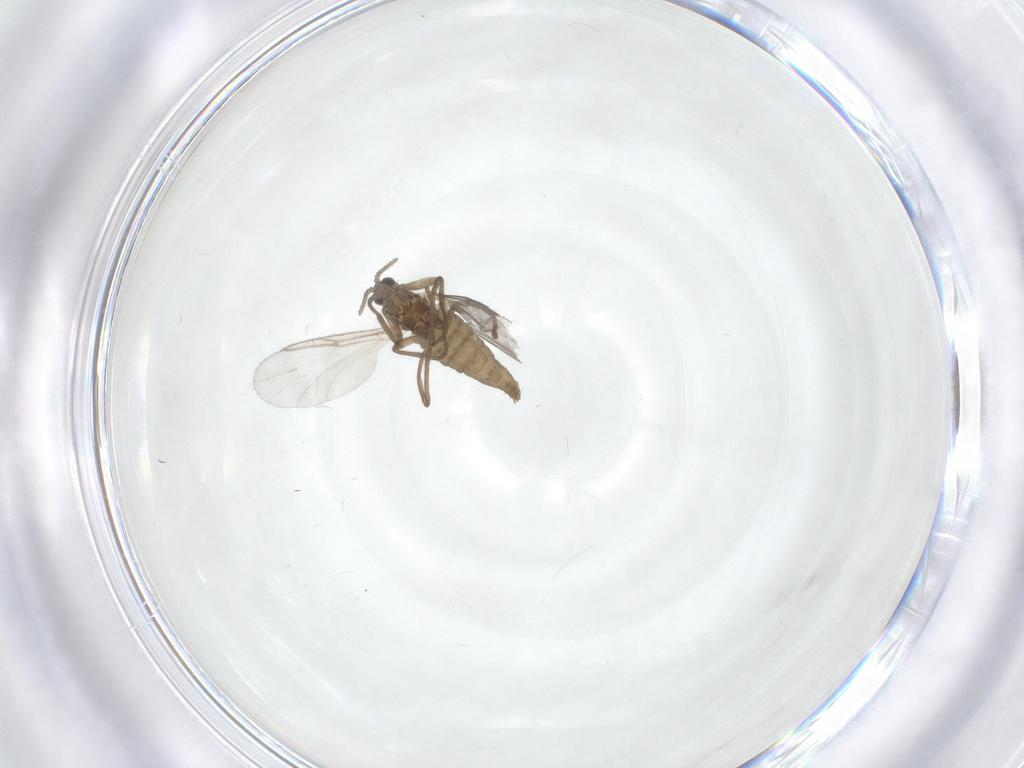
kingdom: Animalia
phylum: Arthropoda
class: Insecta
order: Diptera
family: Cecidomyiidae
